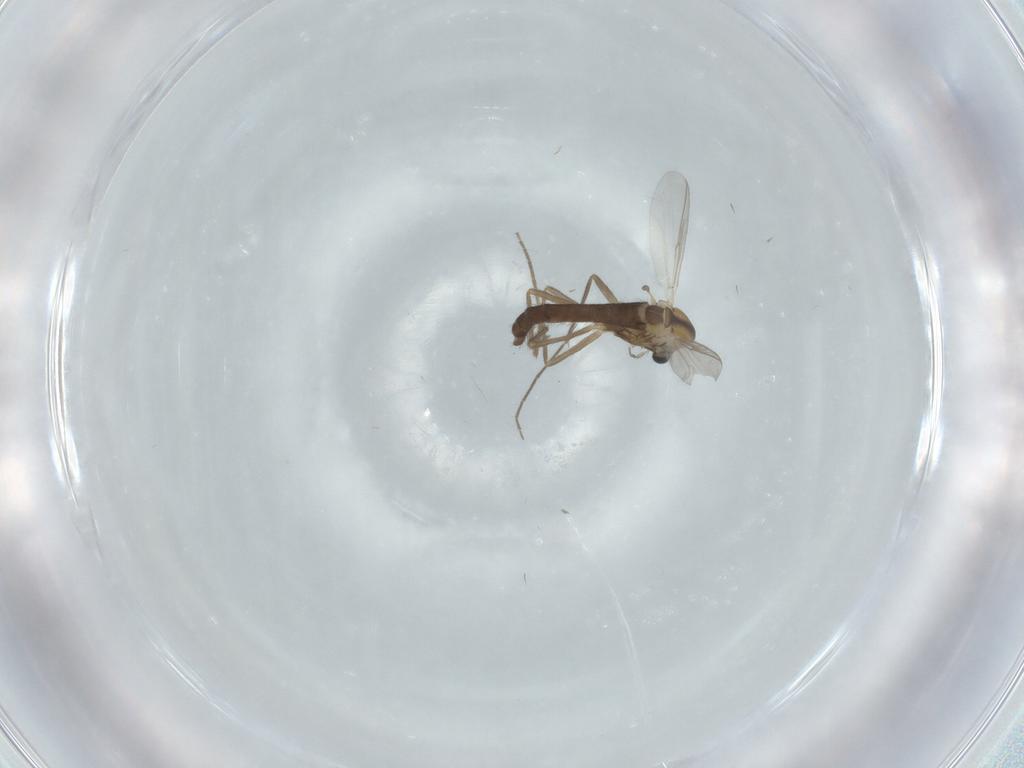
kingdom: Animalia
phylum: Arthropoda
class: Insecta
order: Diptera
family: Chironomidae
